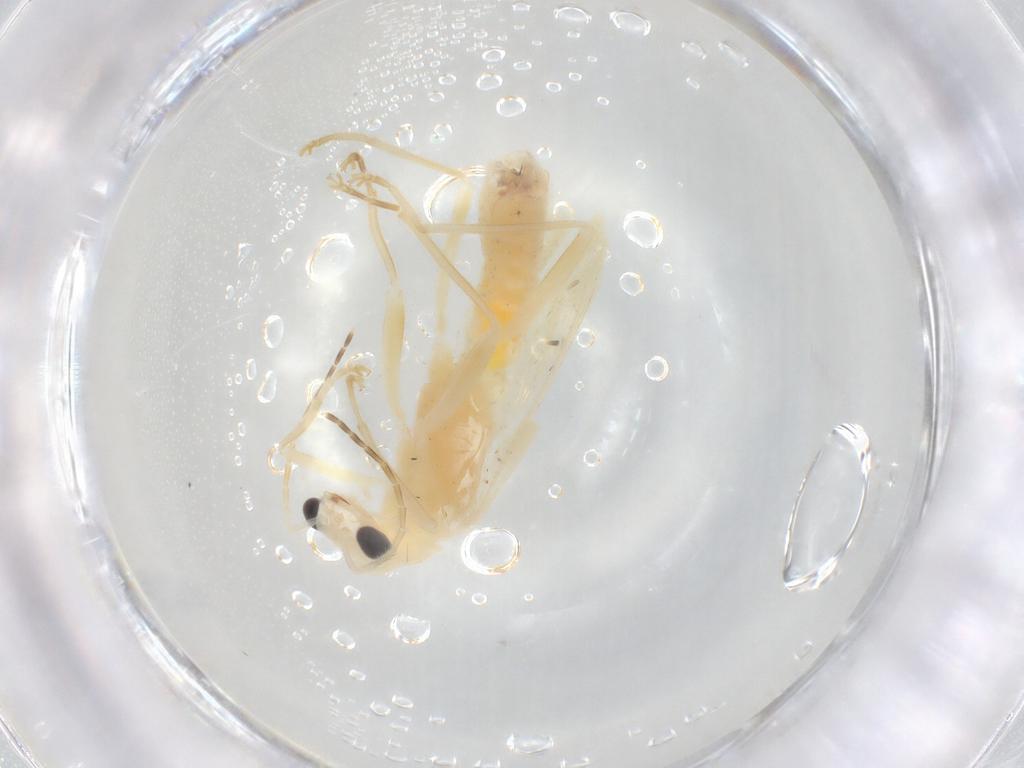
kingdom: Animalia
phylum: Arthropoda
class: Insecta
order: Coleoptera
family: Cantharidae
